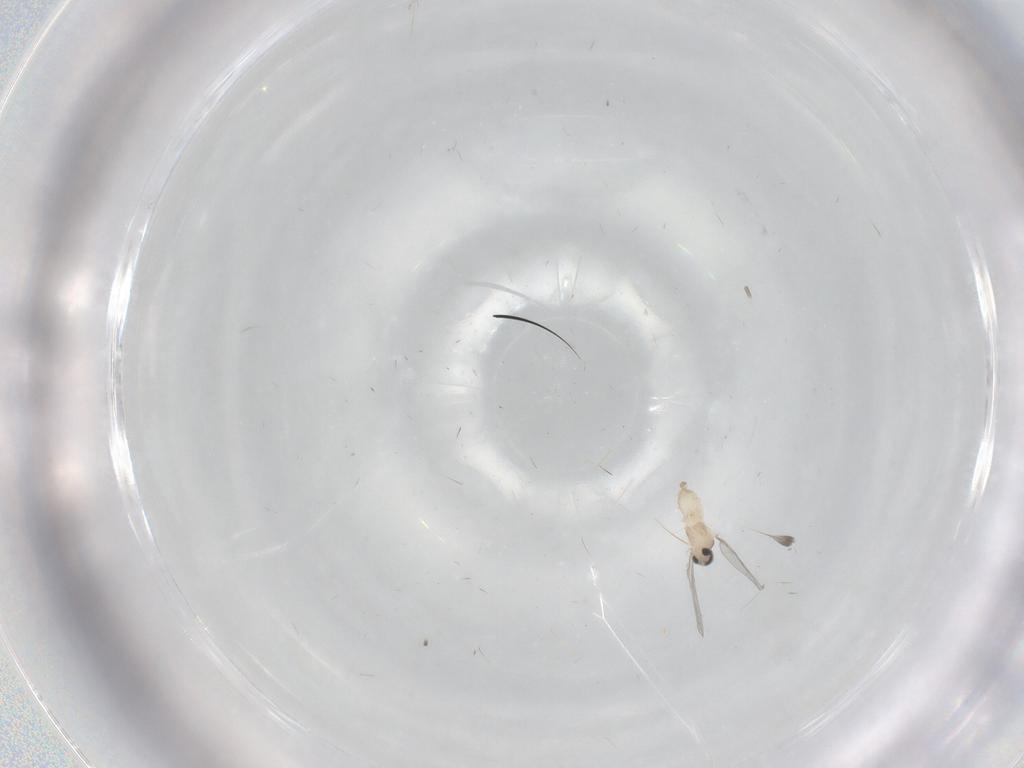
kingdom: Animalia
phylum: Arthropoda
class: Insecta
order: Diptera
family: Cecidomyiidae
